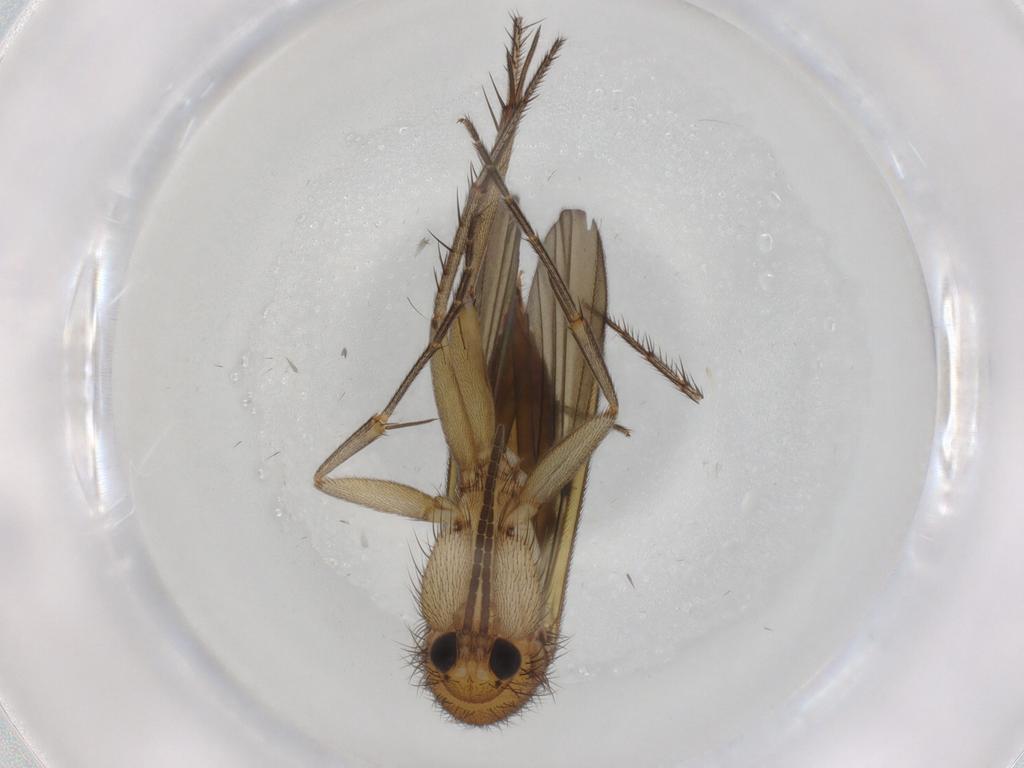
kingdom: Animalia
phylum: Arthropoda
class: Insecta
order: Diptera
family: Mycetophilidae
